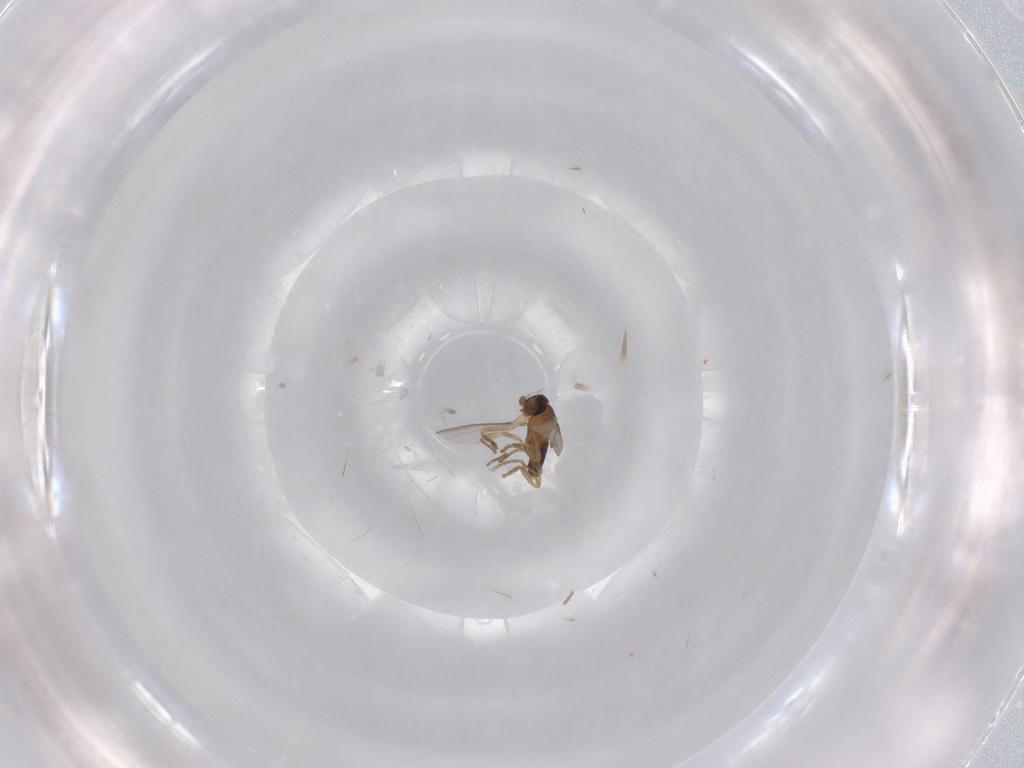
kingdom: Animalia
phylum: Arthropoda
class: Insecta
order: Diptera
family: Phoridae
